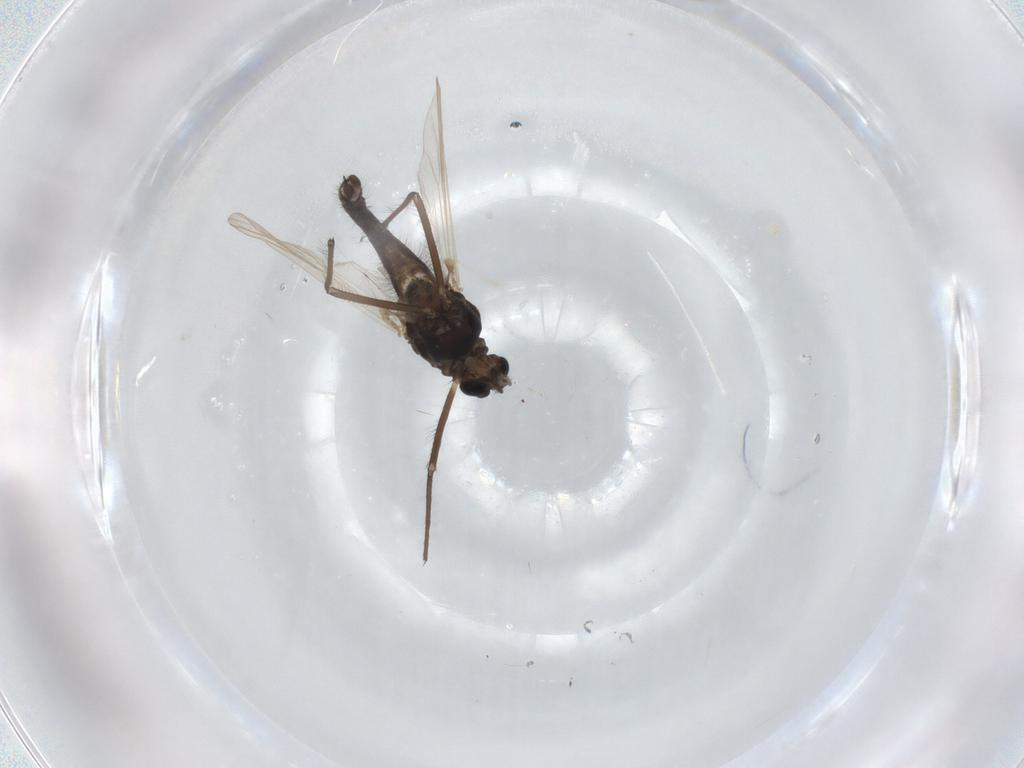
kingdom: Animalia
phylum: Arthropoda
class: Insecta
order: Diptera
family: Chironomidae
